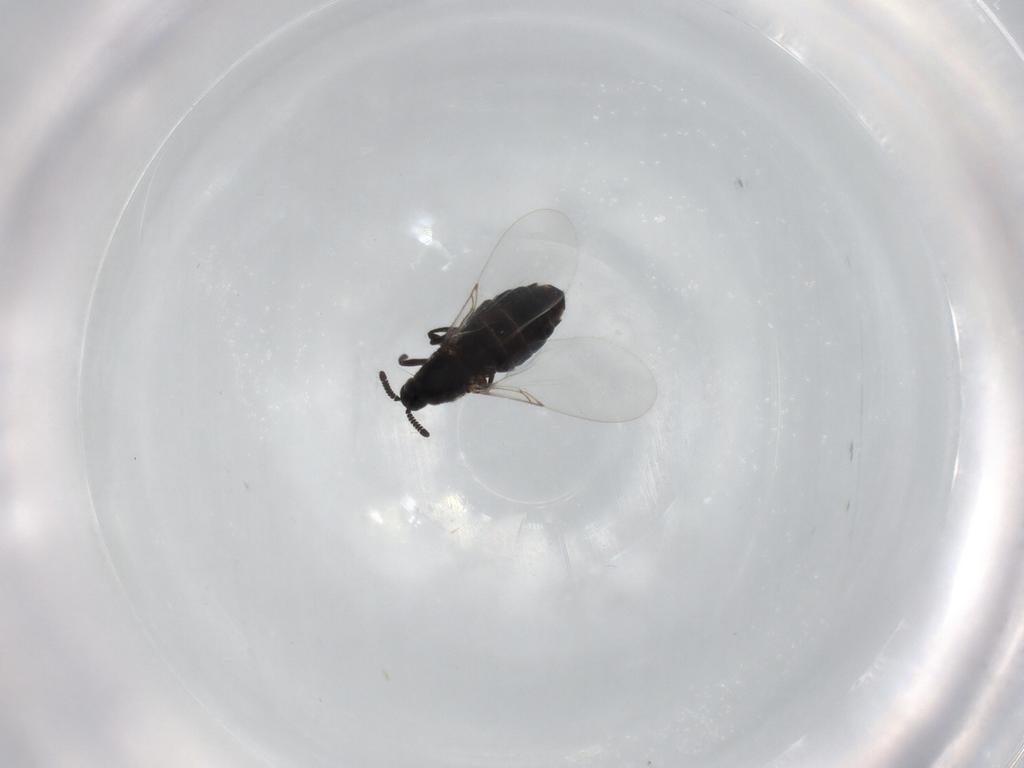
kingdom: Animalia
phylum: Arthropoda
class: Insecta
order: Diptera
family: Scatopsidae
